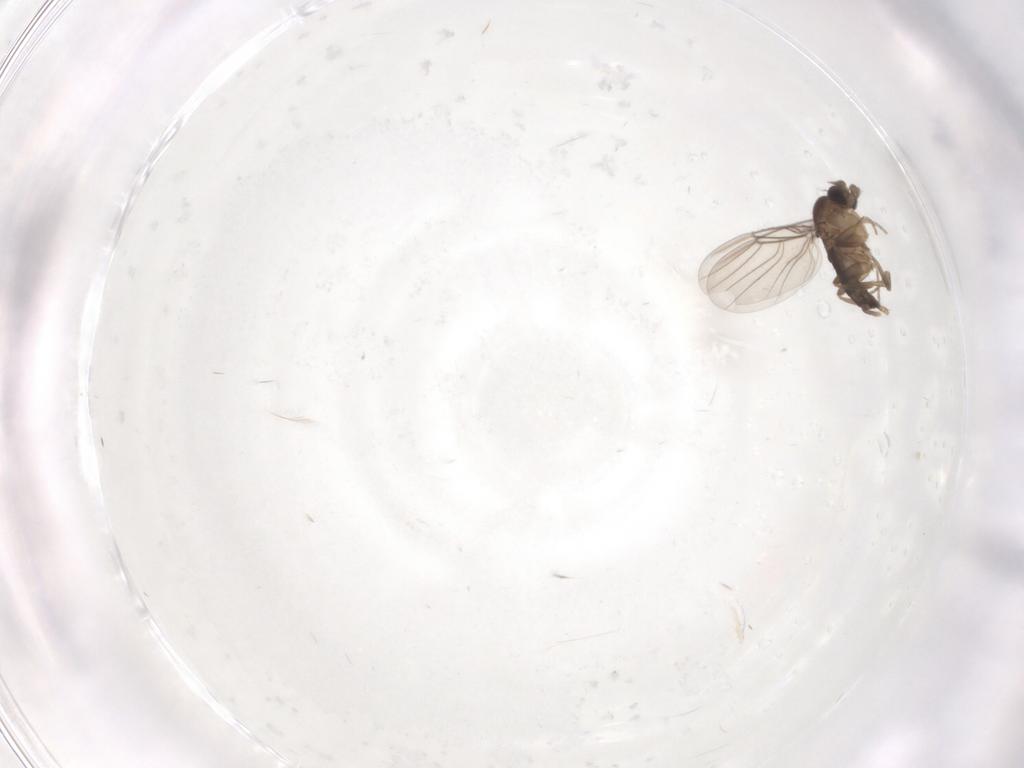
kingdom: Animalia
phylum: Arthropoda
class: Insecta
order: Diptera
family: Phoridae
